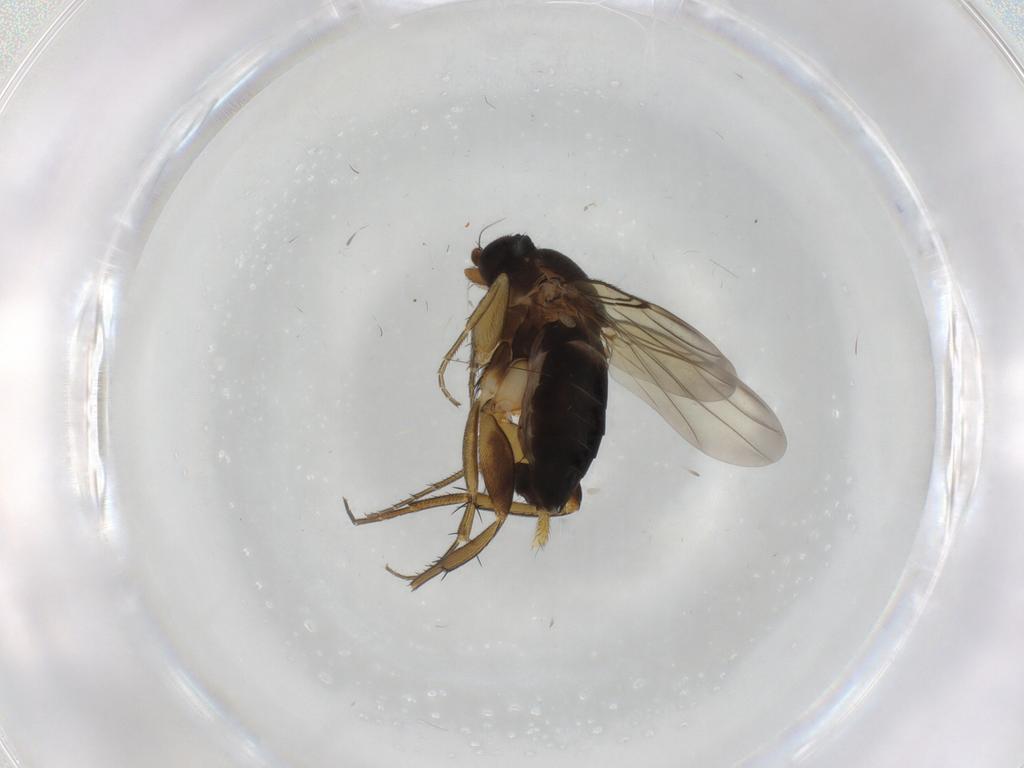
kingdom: Animalia
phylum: Arthropoda
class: Insecta
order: Diptera
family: Phoridae
